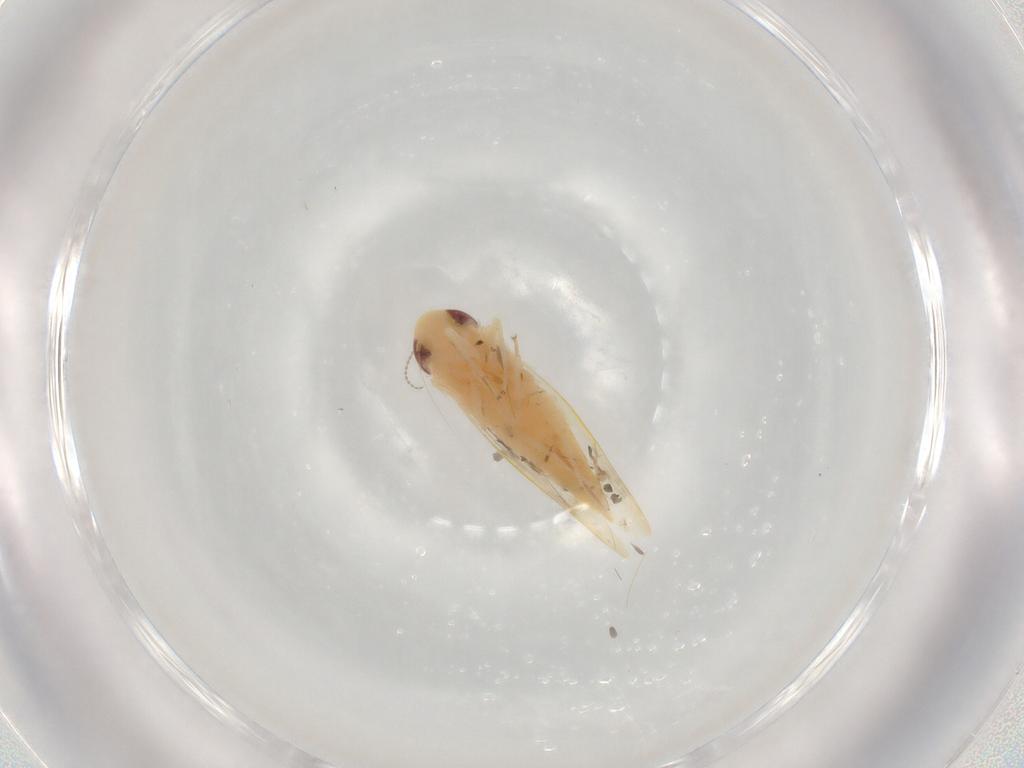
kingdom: Animalia
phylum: Arthropoda
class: Insecta
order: Hemiptera
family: Cicadellidae
